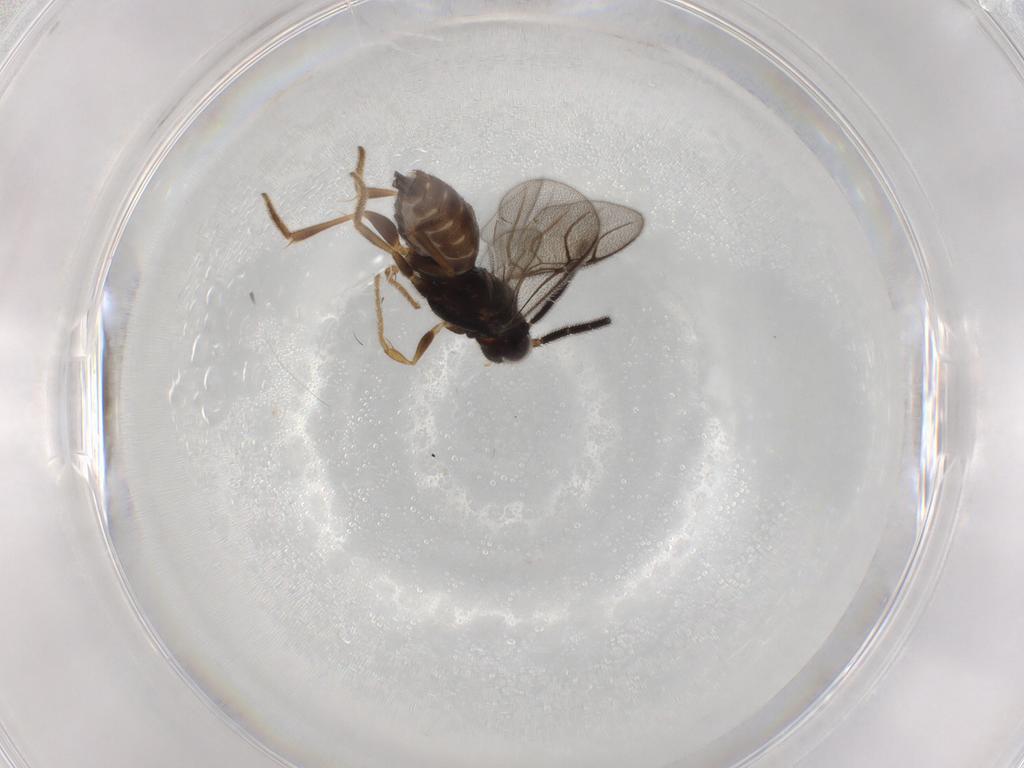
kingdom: Animalia
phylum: Arthropoda
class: Insecta
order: Hymenoptera
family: Dryinidae
